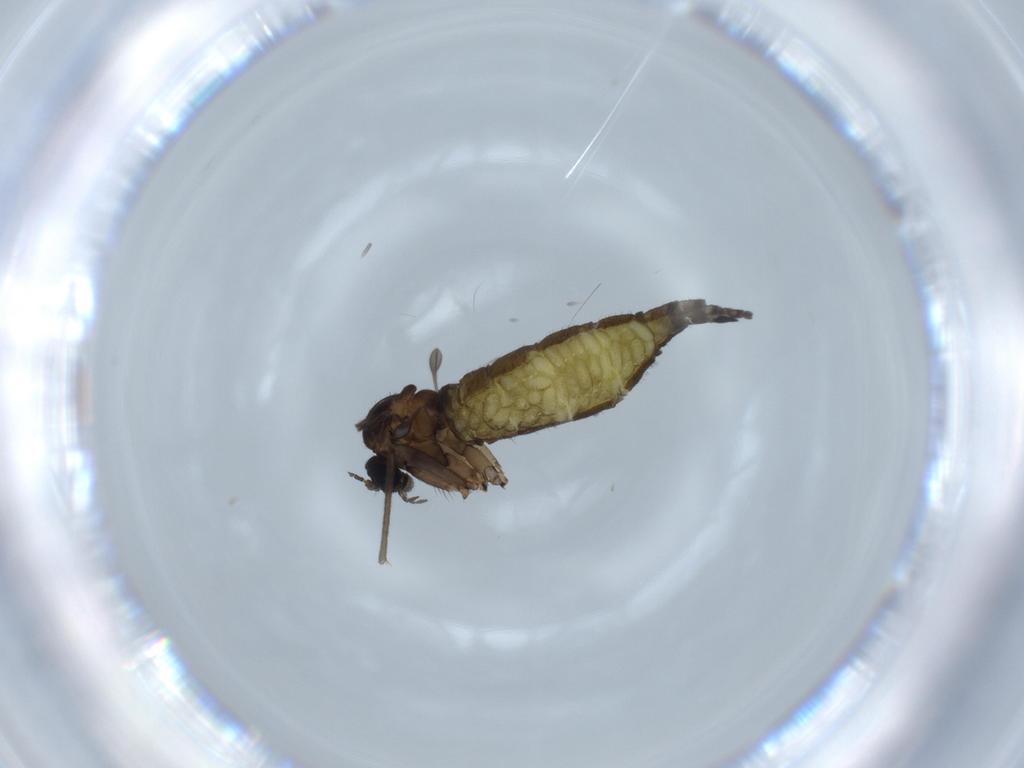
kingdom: Animalia
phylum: Arthropoda
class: Insecta
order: Diptera
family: Sciaridae
